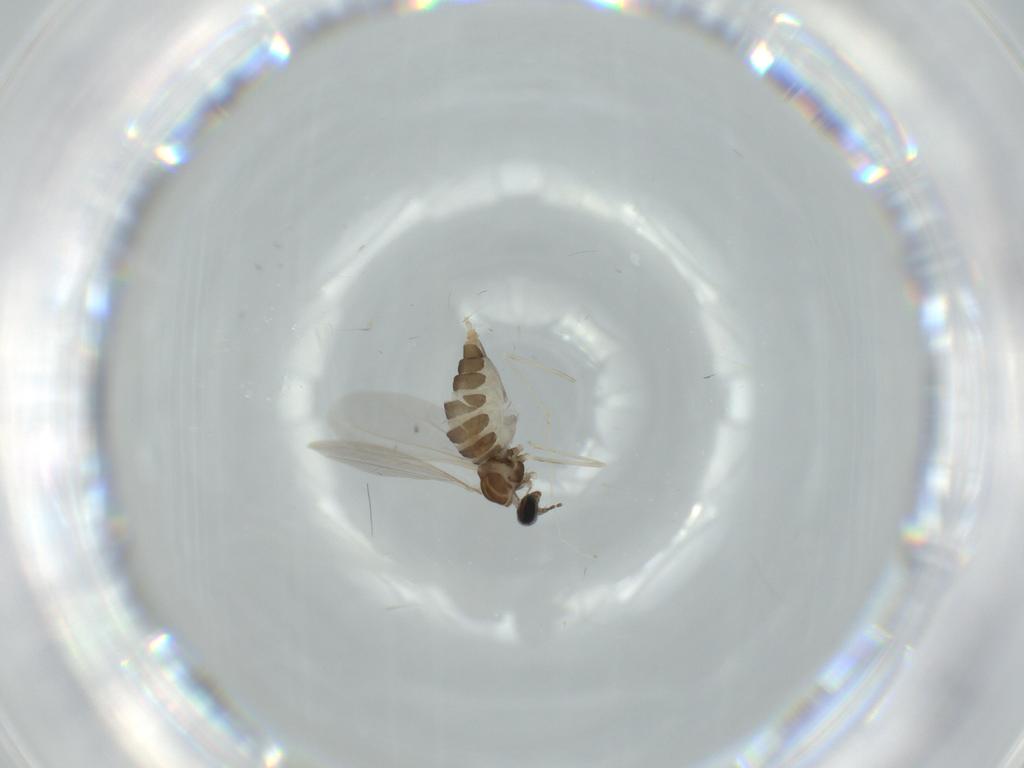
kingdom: Animalia
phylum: Arthropoda
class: Insecta
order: Diptera
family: Cecidomyiidae
